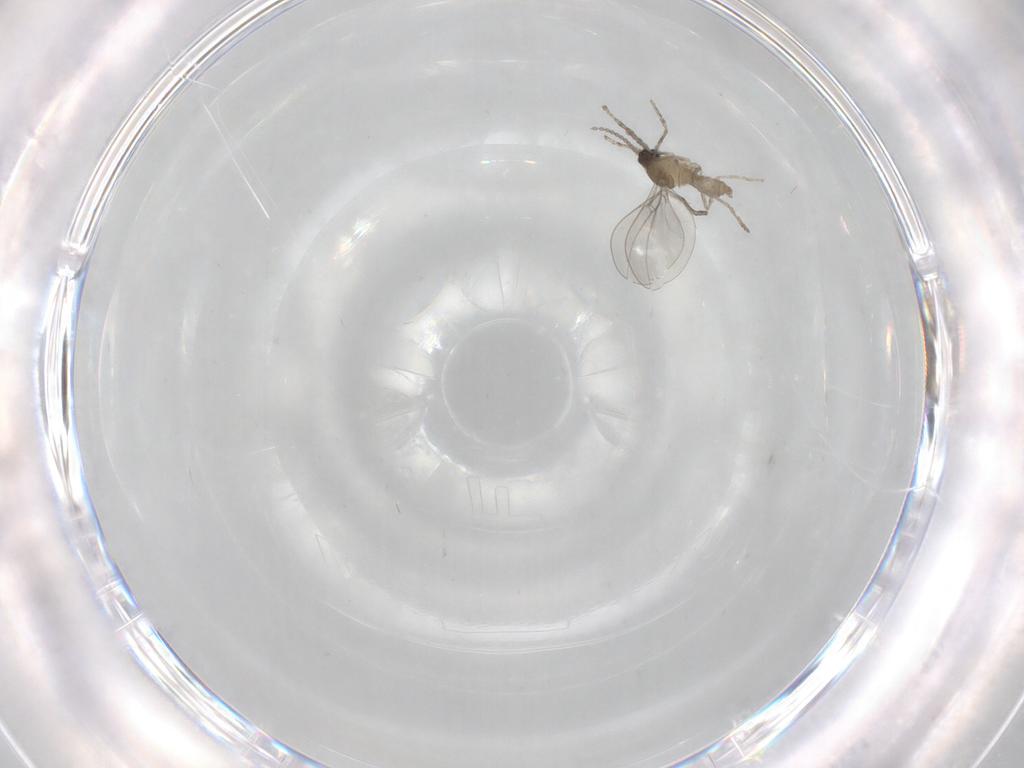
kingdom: Animalia
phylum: Arthropoda
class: Insecta
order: Diptera
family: Cecidomyiidae
